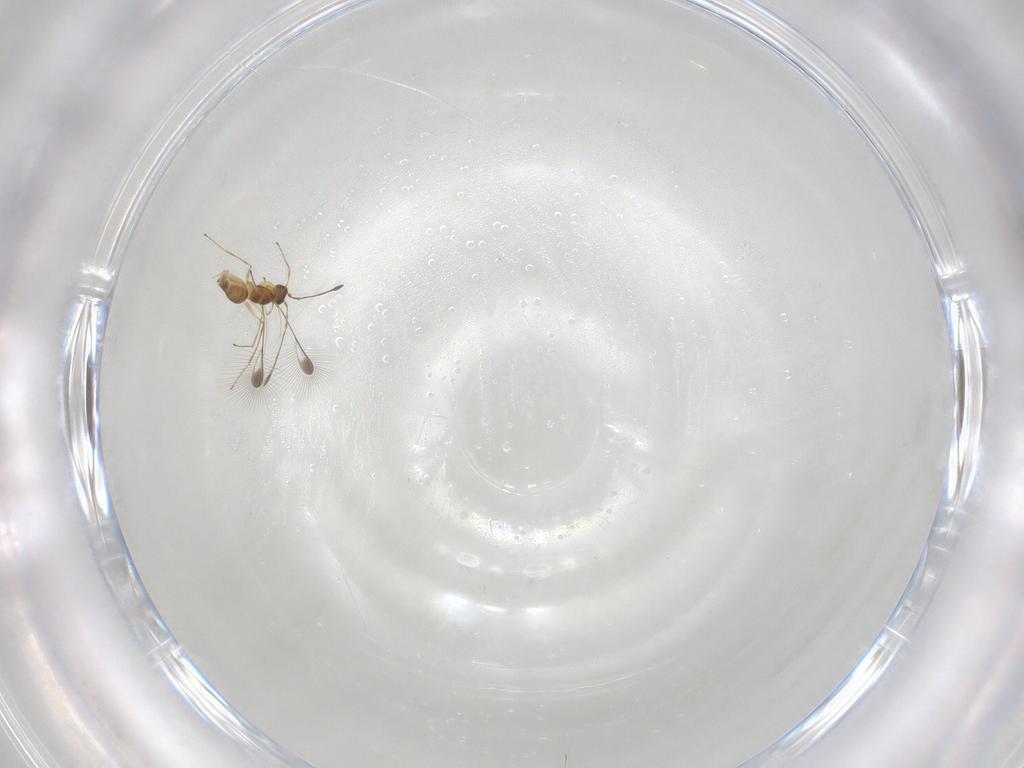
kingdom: Animalia
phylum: Arthropoda
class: Insecta
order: Hymenoptera
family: Mymaridae
